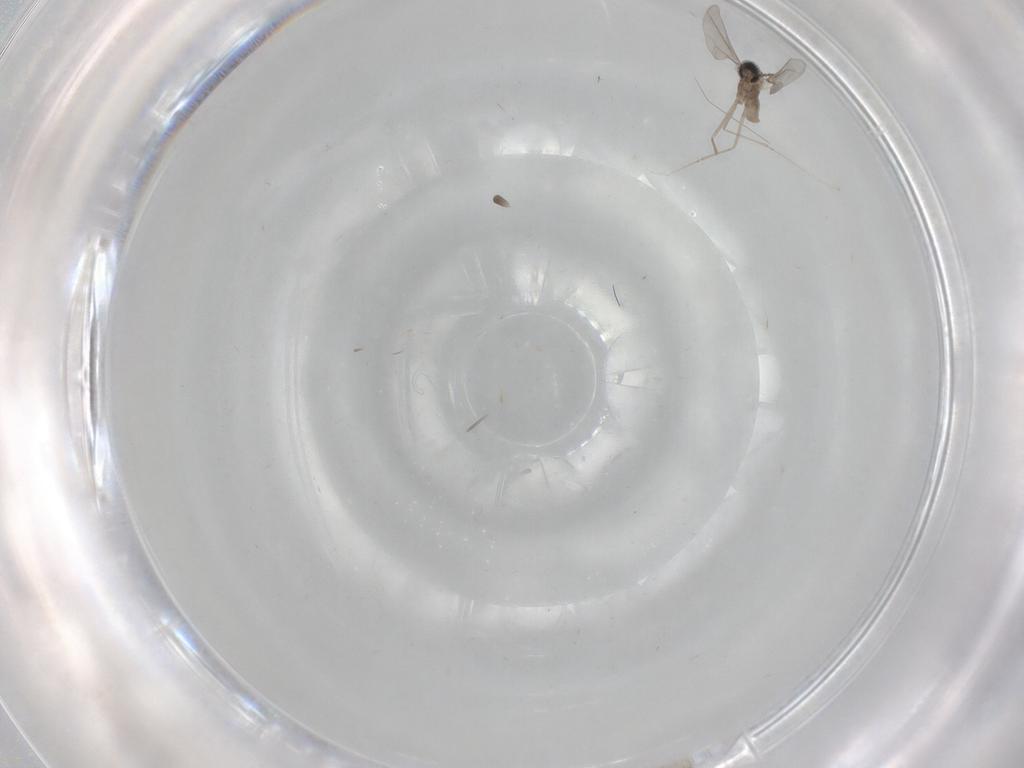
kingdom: Animalia
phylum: Arthropoda
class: Insecta
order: Diptera
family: Cecidomyiidae
